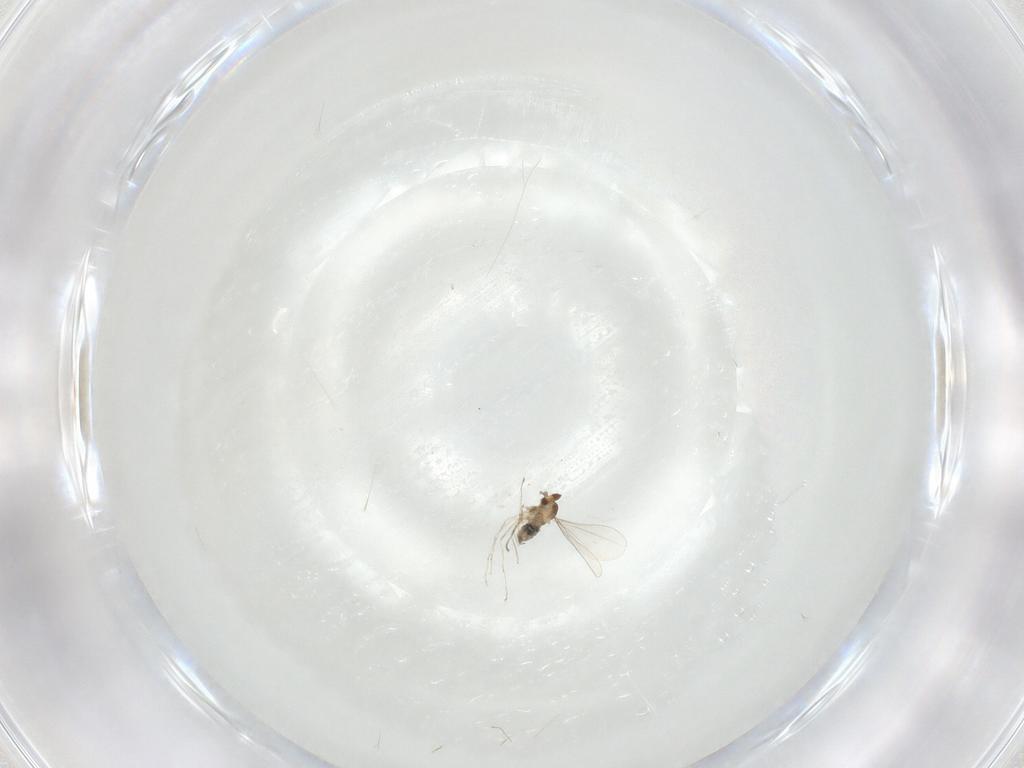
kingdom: Animalia
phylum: Arthropoda
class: Insecta
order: Diptera
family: Cecidomyiidae
